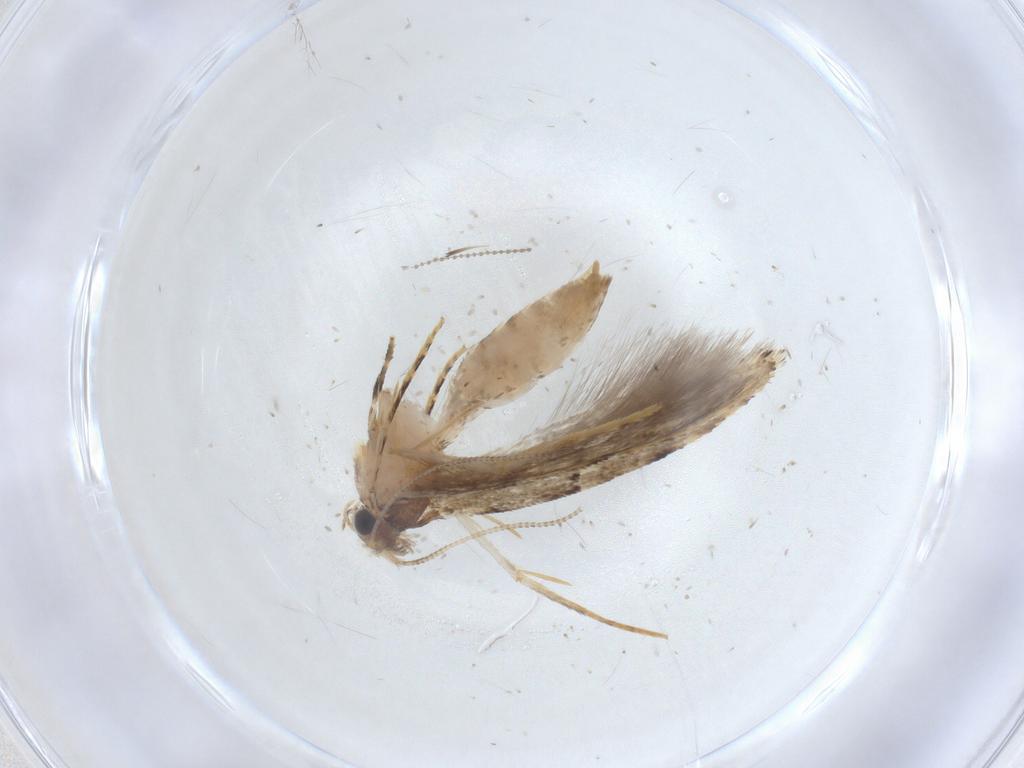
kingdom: Animalia
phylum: Arthropoda
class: Insecta
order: Lepidoptera
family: Tineidae
